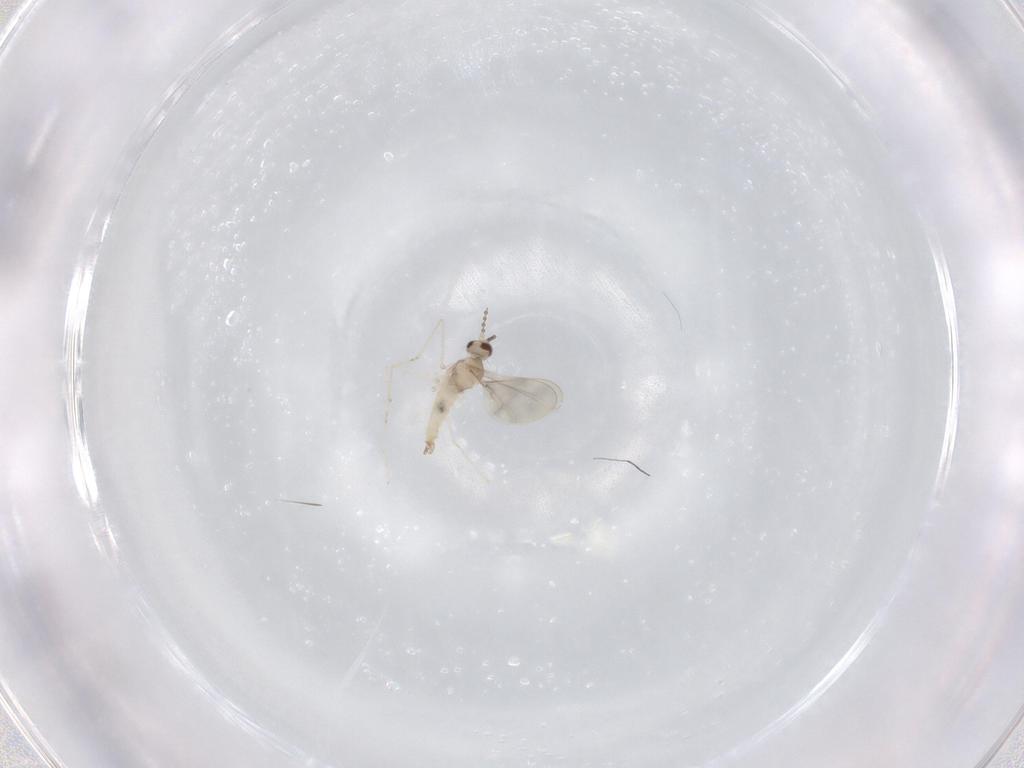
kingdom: Animalia
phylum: Arthropoda
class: Insecta
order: Diptera
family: Cecidomyiidae
